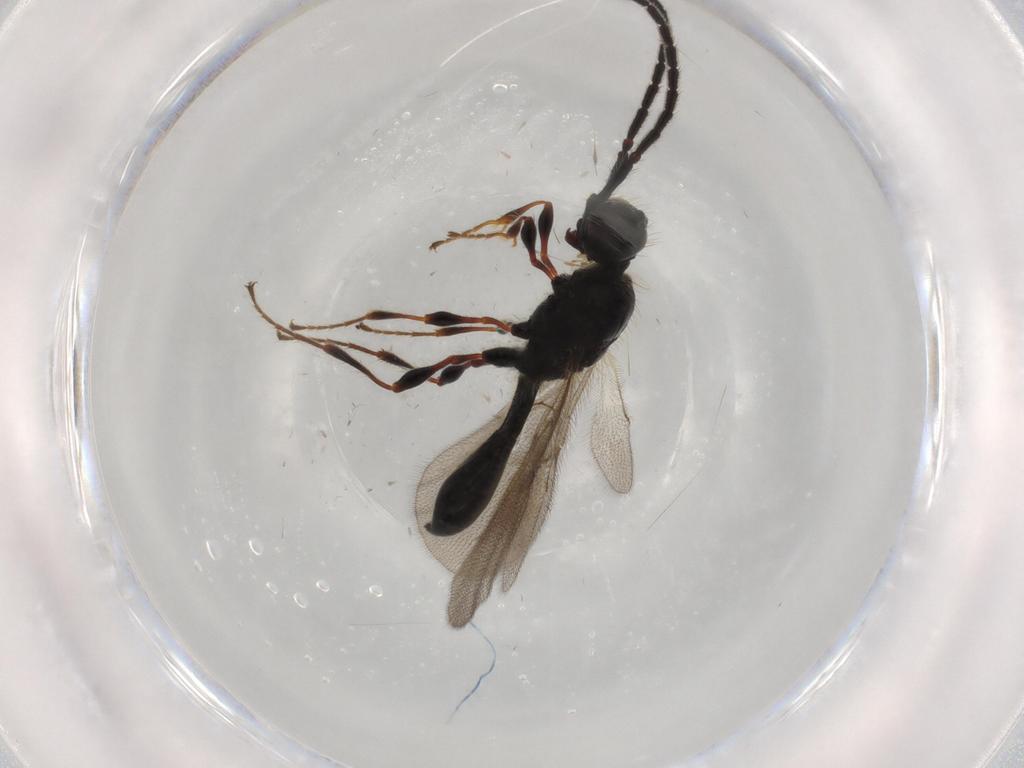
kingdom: Animalia
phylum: Arthropoda
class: Insecta
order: Hymenoptera
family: Diapriidae
